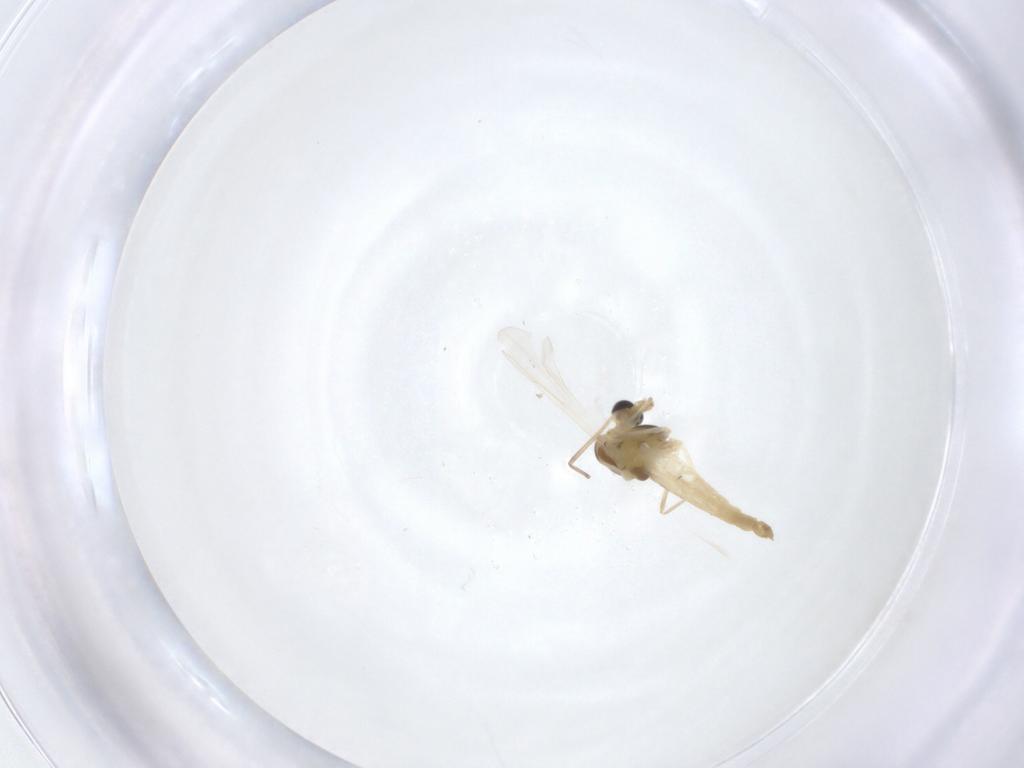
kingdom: Animalia
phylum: Arthropoda
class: Insecta
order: Diptera
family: Chironomidae
